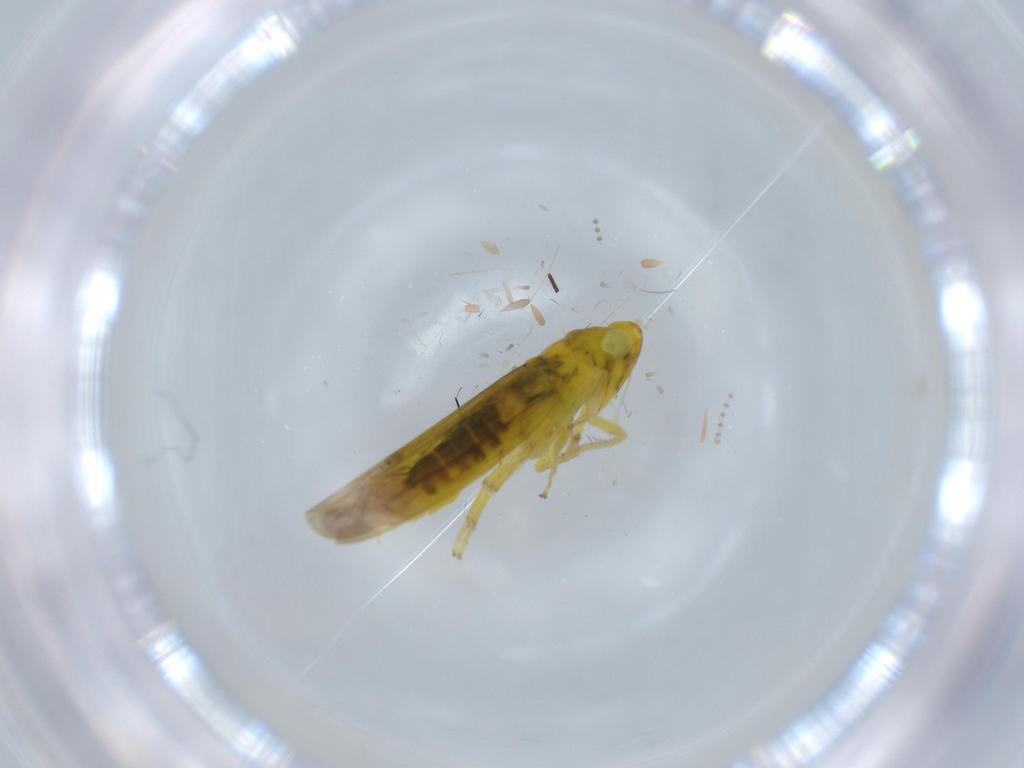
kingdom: Animalia
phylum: Arthropoda
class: Insecta
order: Hemiptera
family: Cicadellidae
